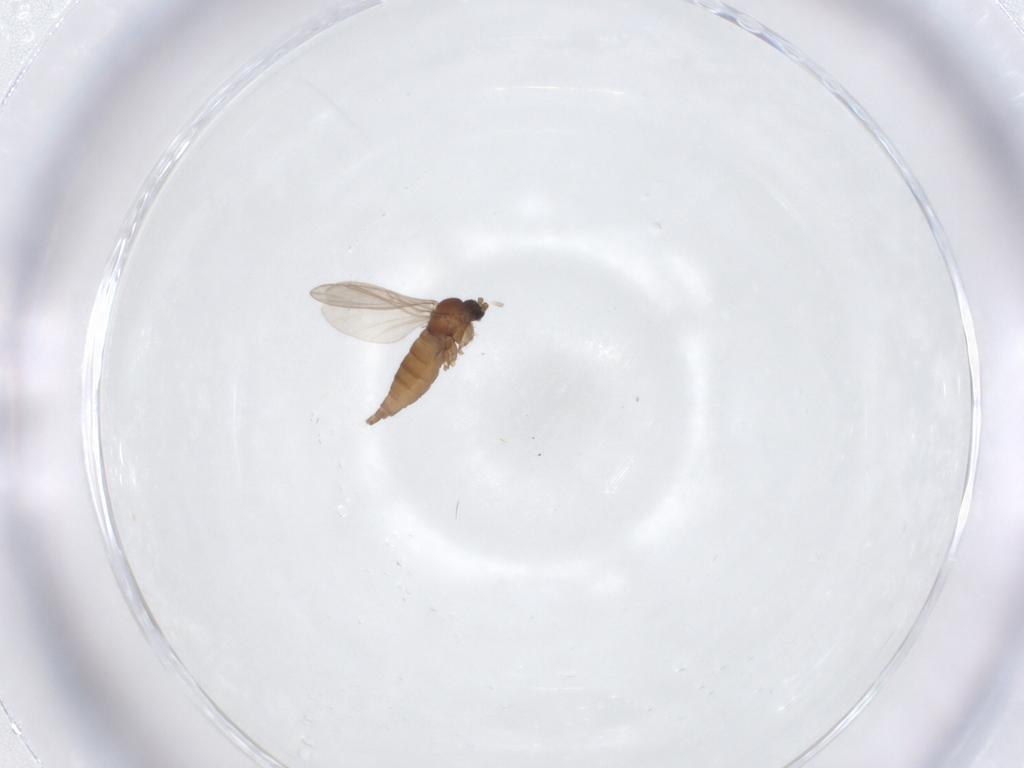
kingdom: Animalia
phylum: Arthropoda
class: Insecta
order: Diptera
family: Sciaridae
